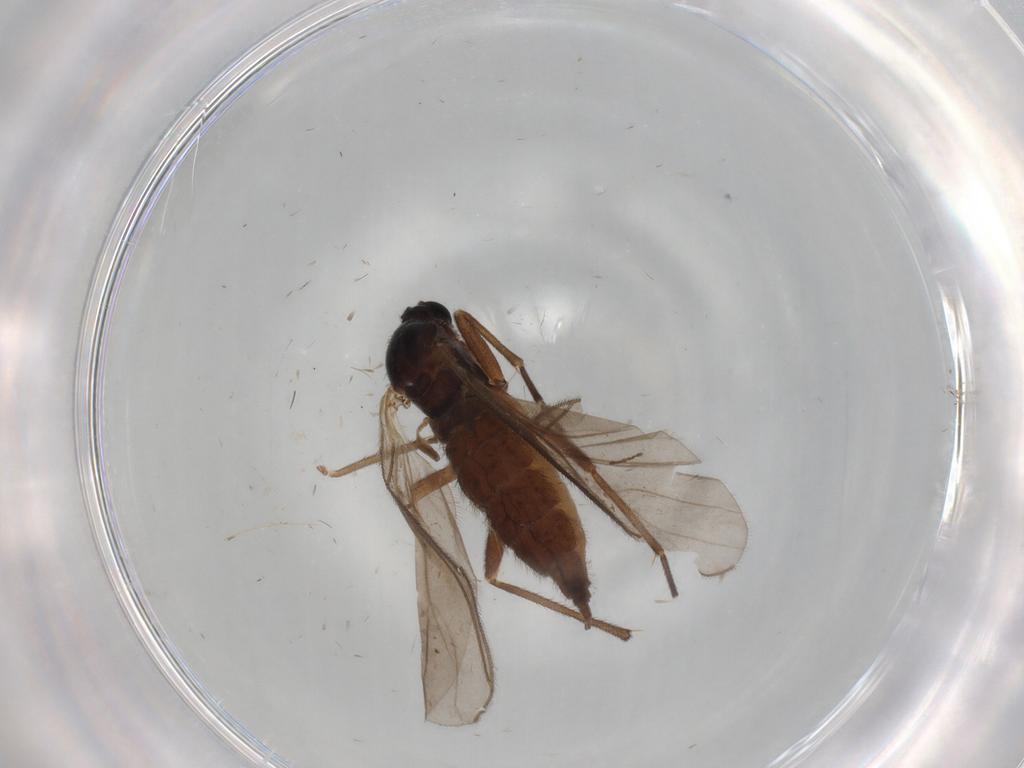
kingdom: Animalia
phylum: Arthropoda
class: Insecta
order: Diptera
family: Sciaridae
